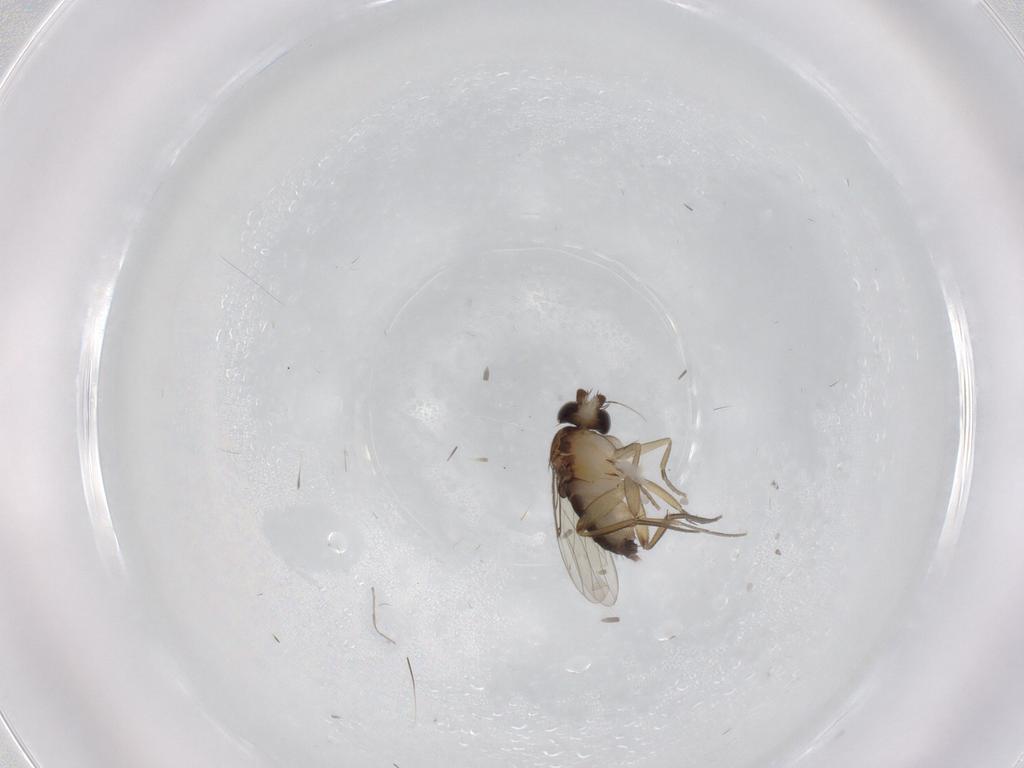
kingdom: Animalia
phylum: Arthropoda
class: Insecta
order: Diptera
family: Phoridae
